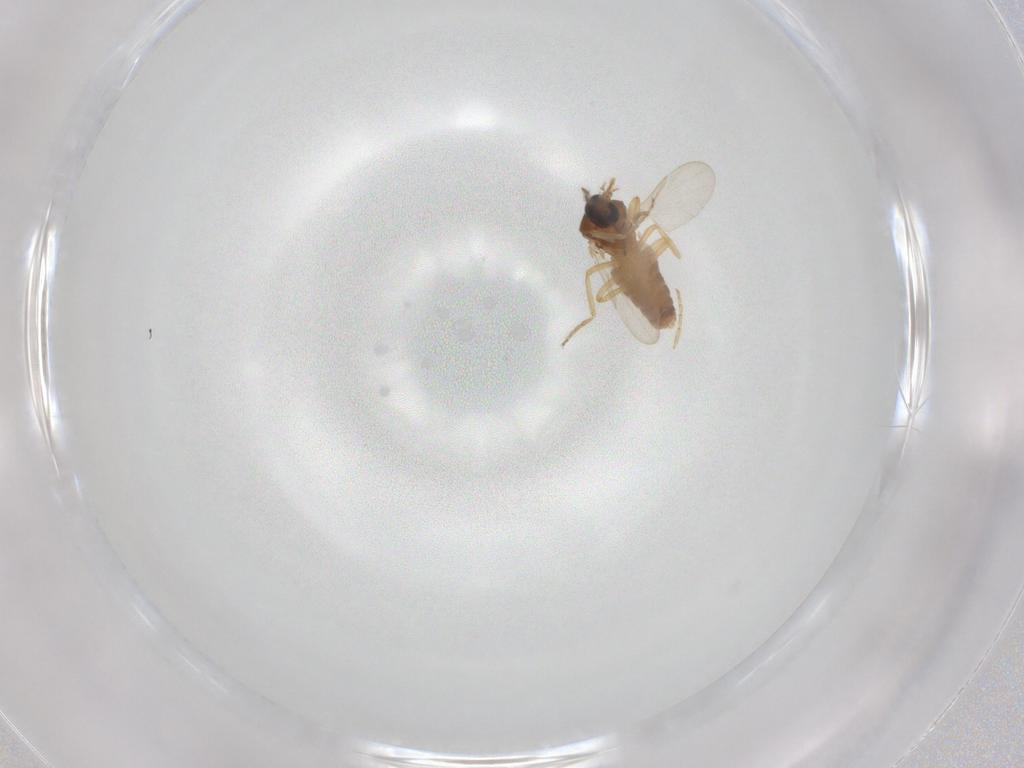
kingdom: Animalia
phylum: Arthropoda
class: Insecta
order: Diptera
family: Ceratopogonidae
